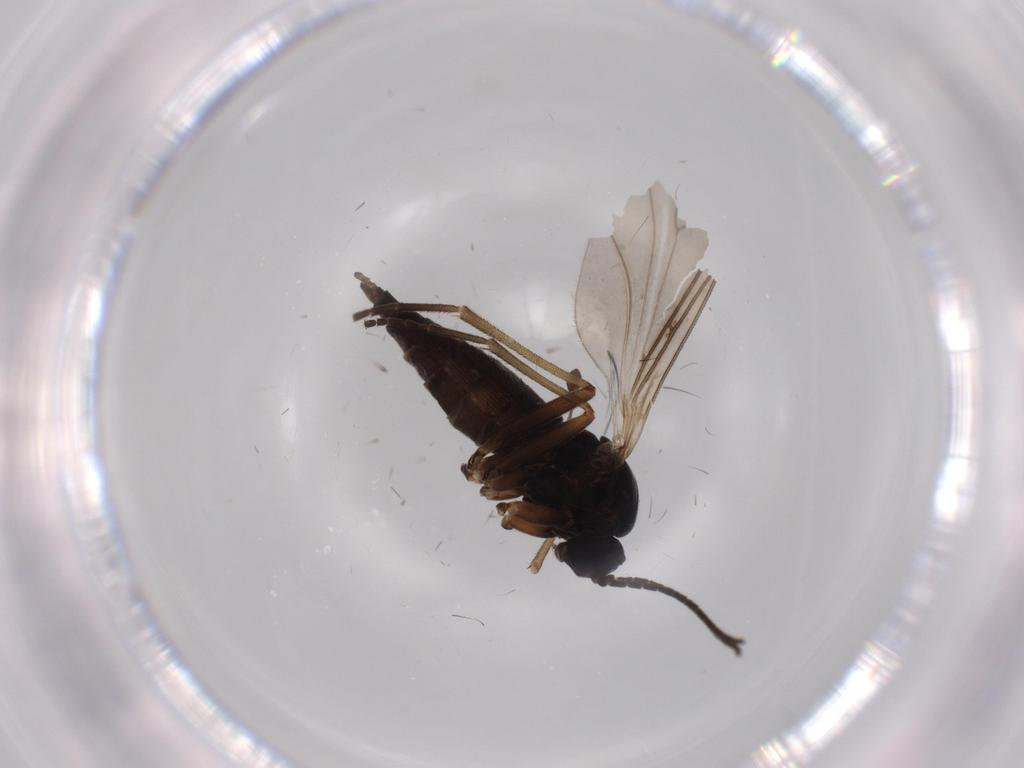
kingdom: Animalia
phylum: Arthropoda
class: Insecta
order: Diptera
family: Sciaridae
